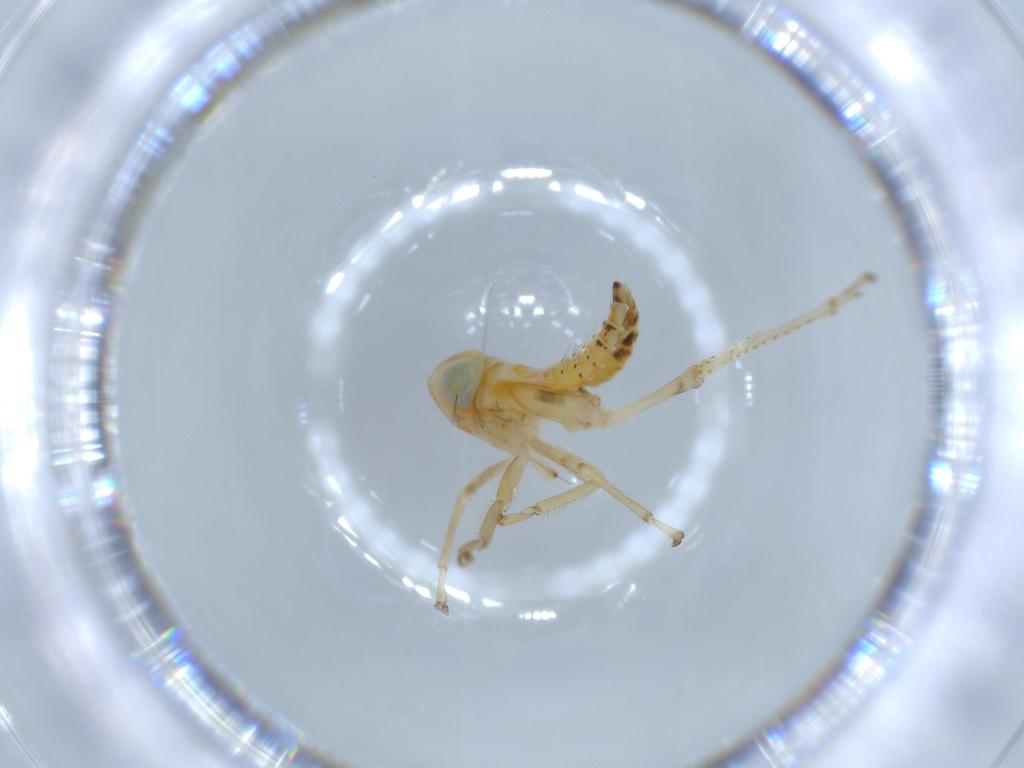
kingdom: Animalia
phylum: Arthropoda
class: Insecta
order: Hemiptera
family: Cicadellidae
